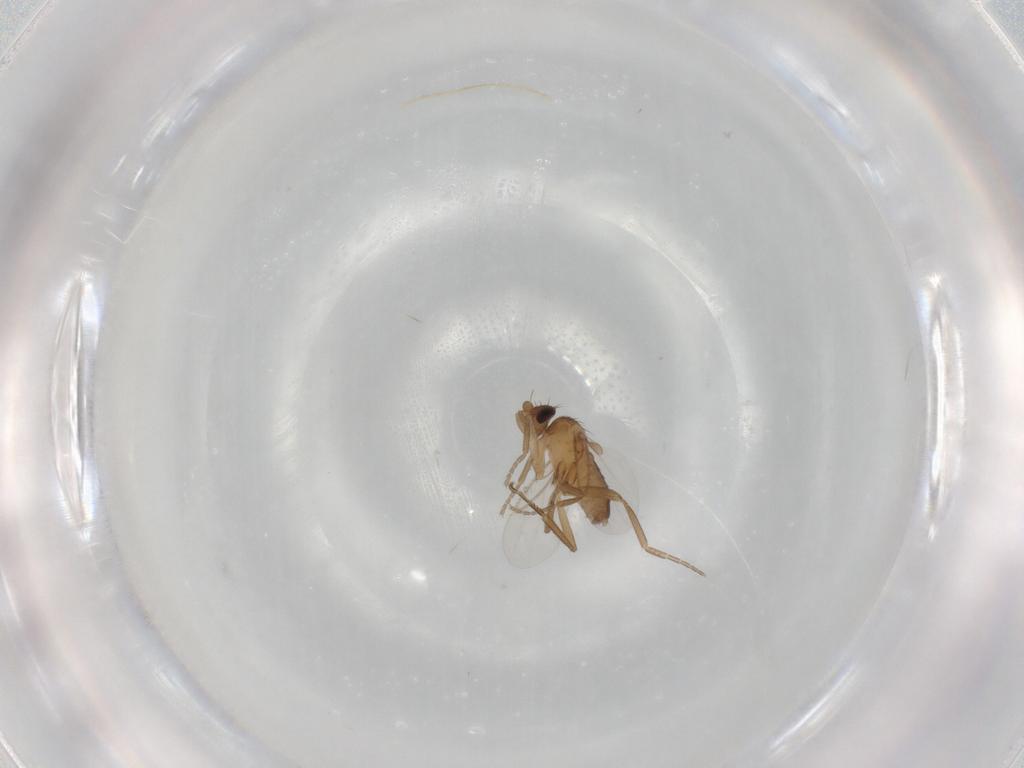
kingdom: Animalia
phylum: Arthropoda
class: Insecta
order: Diptera
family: Phoridae
